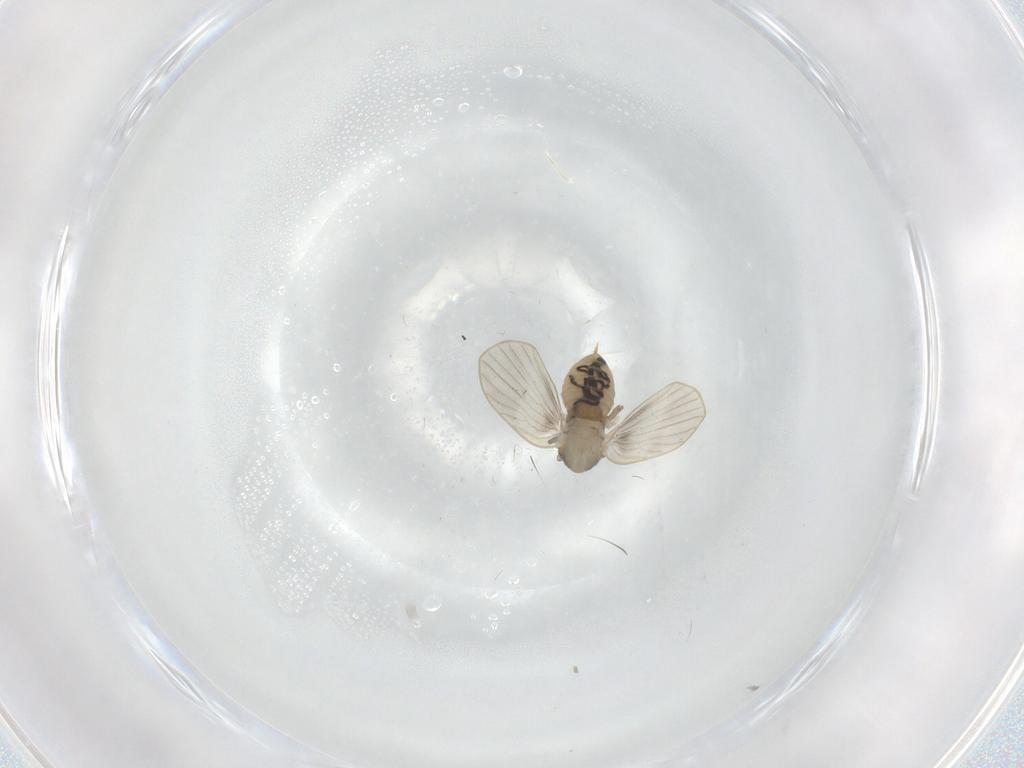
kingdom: Animalia
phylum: Arthropoda
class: Insecta
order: Diptera
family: Psychodidae
